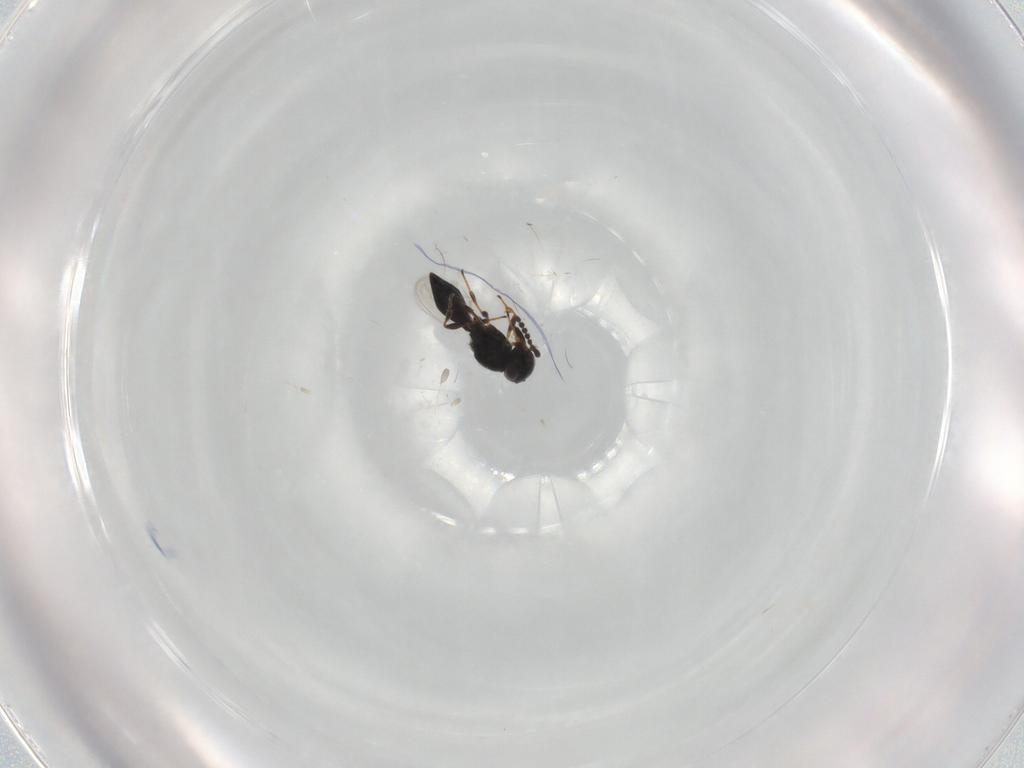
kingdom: Animalia
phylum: Arthropoda
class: Insecta
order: Hymenoptera
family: Platygastridae
